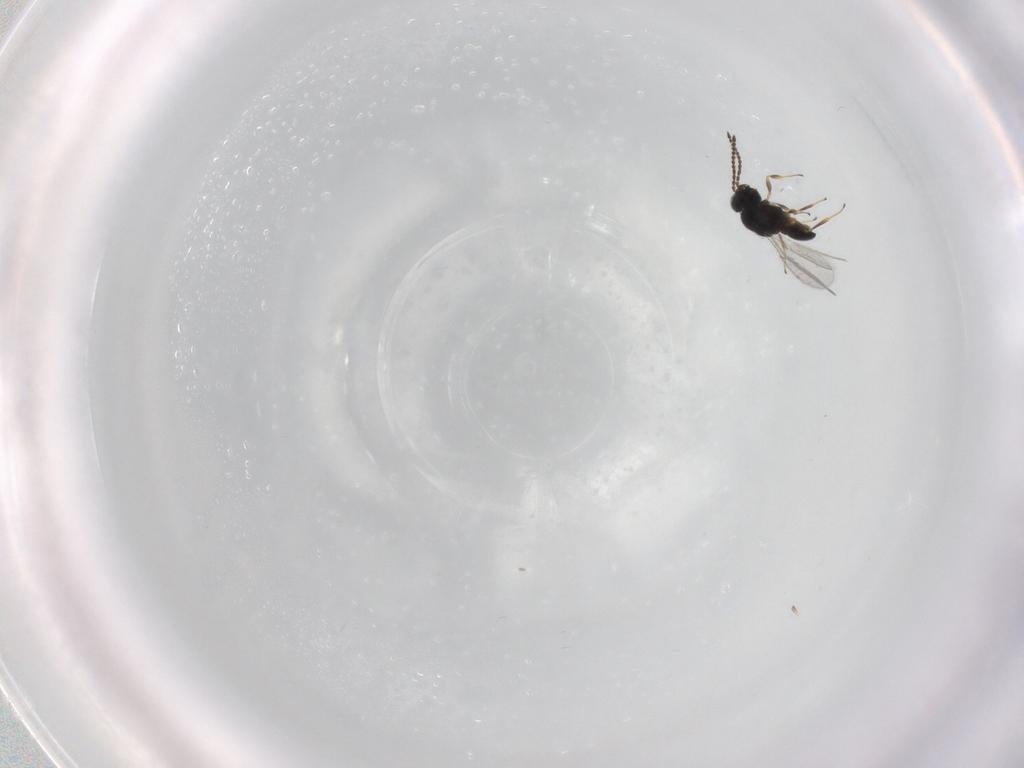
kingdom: Animalia
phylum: Arthropoda
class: Insecta
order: Hymenoptera
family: Scelionidae
